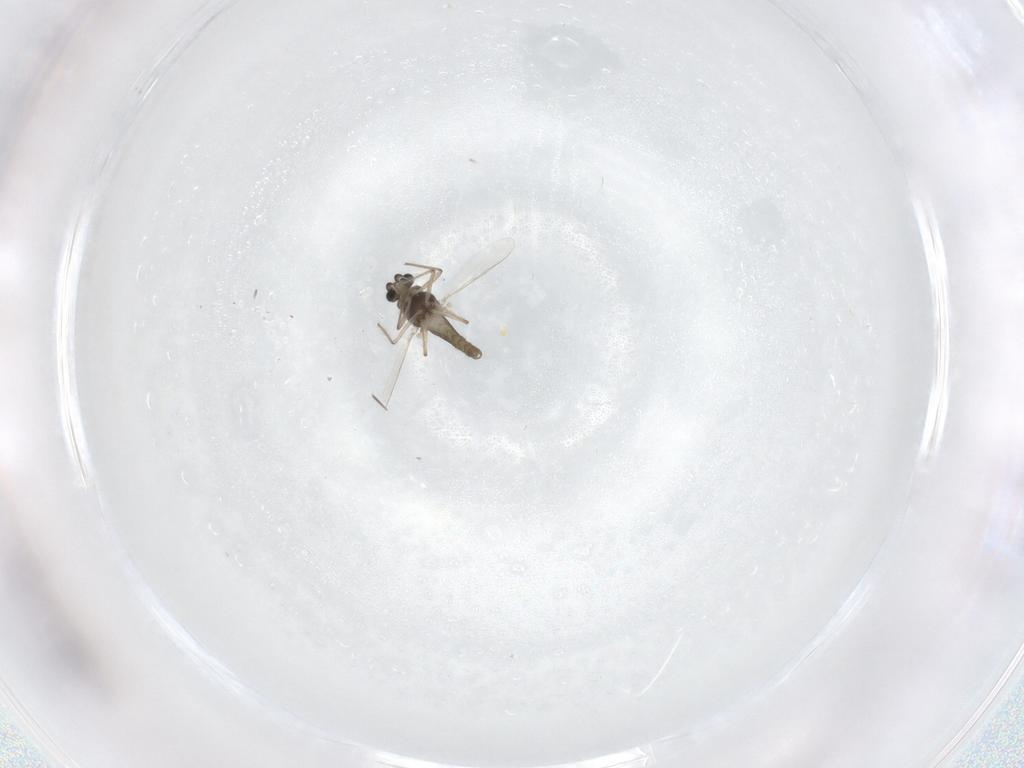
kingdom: Animalia
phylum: Arthropoda
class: Insecta
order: Diptera
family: Chironomidae
